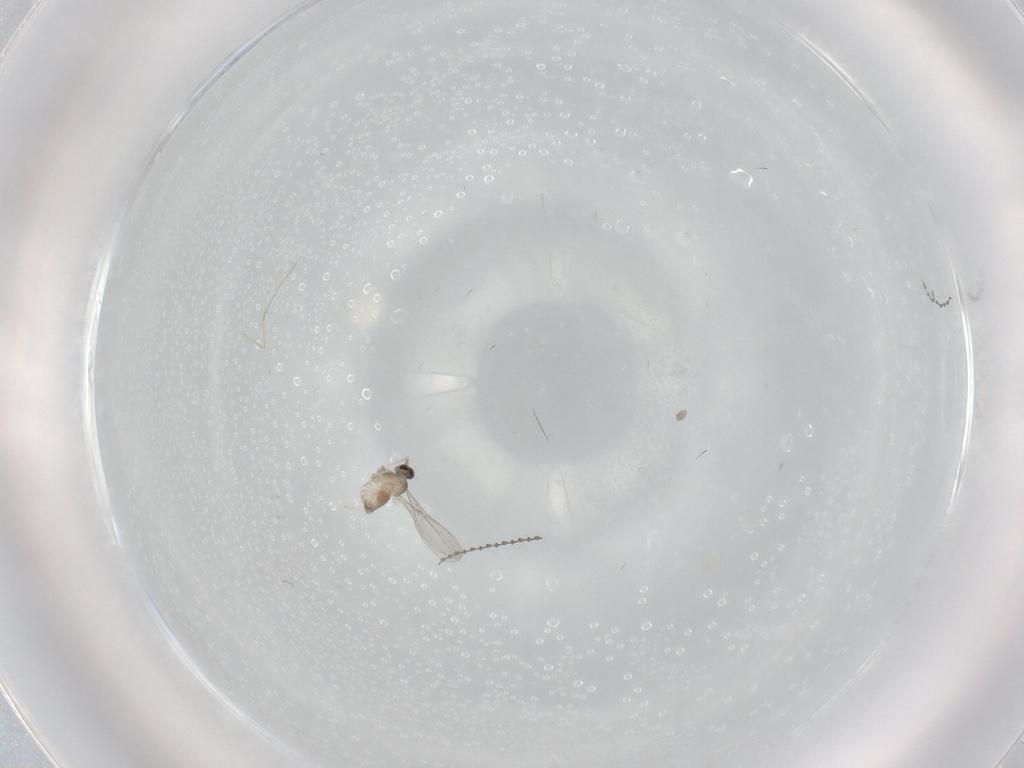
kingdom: Animalia
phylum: Arthropoda
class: Insecta
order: Diptera
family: Cecidomyiidae
